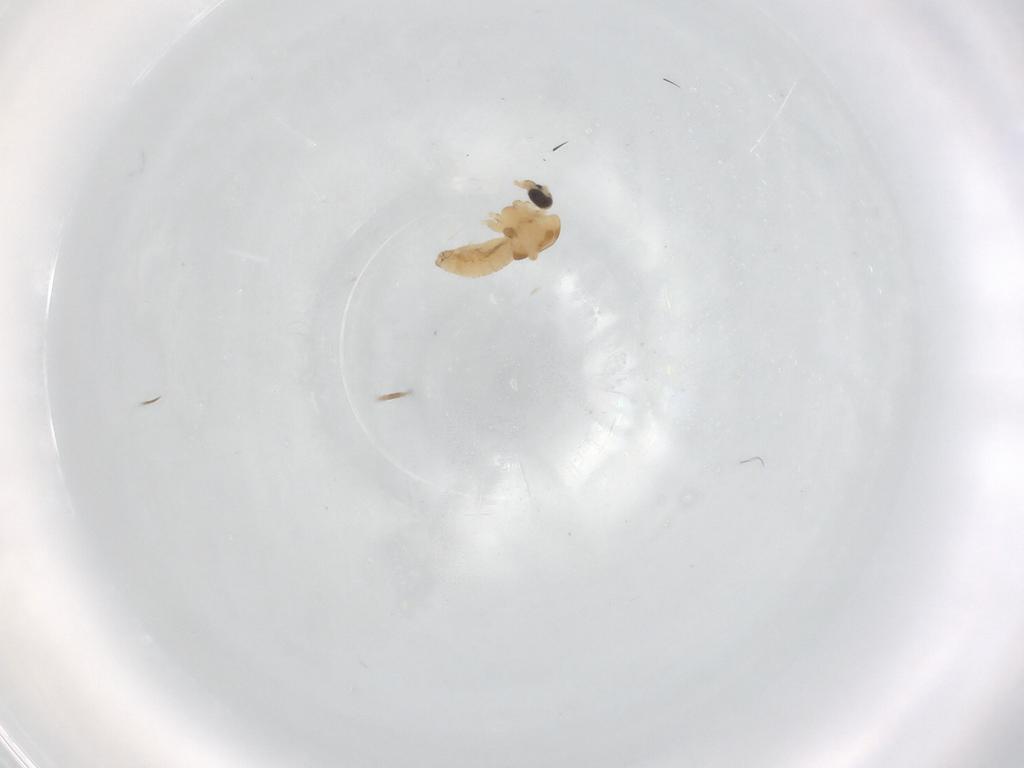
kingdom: Animalia
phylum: Arthropoda
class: Insecta
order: Diptera
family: Chironomidae
